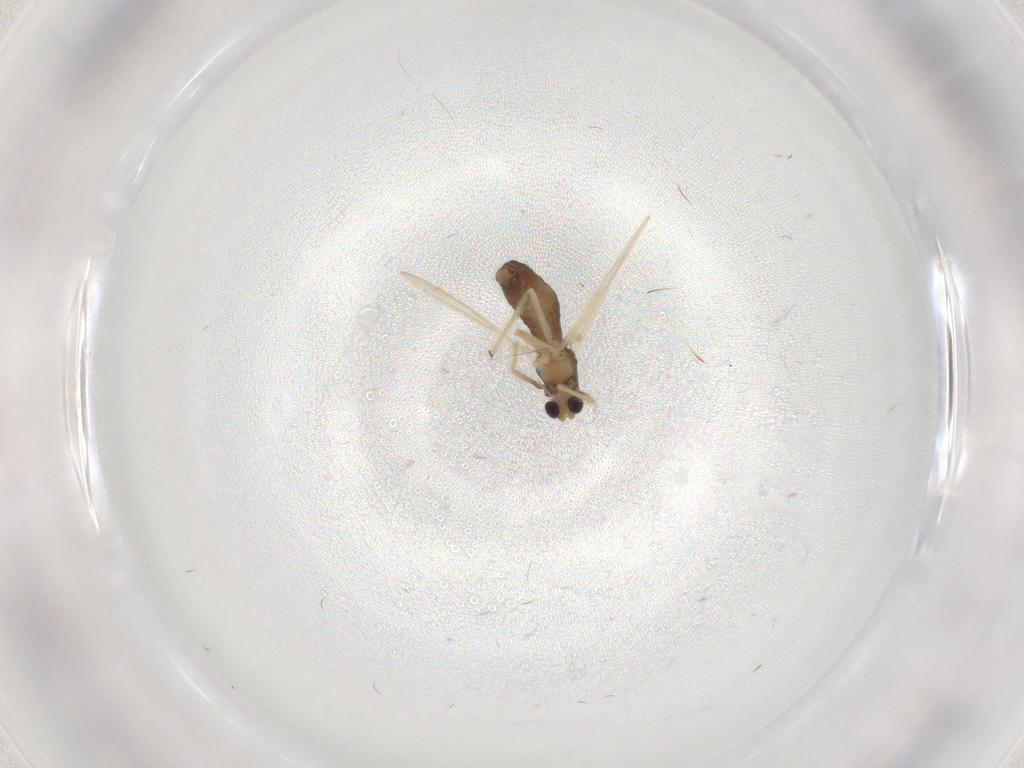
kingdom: Animalia
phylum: Arthropoda
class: Insecta
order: Diptera
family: Chironomidae
